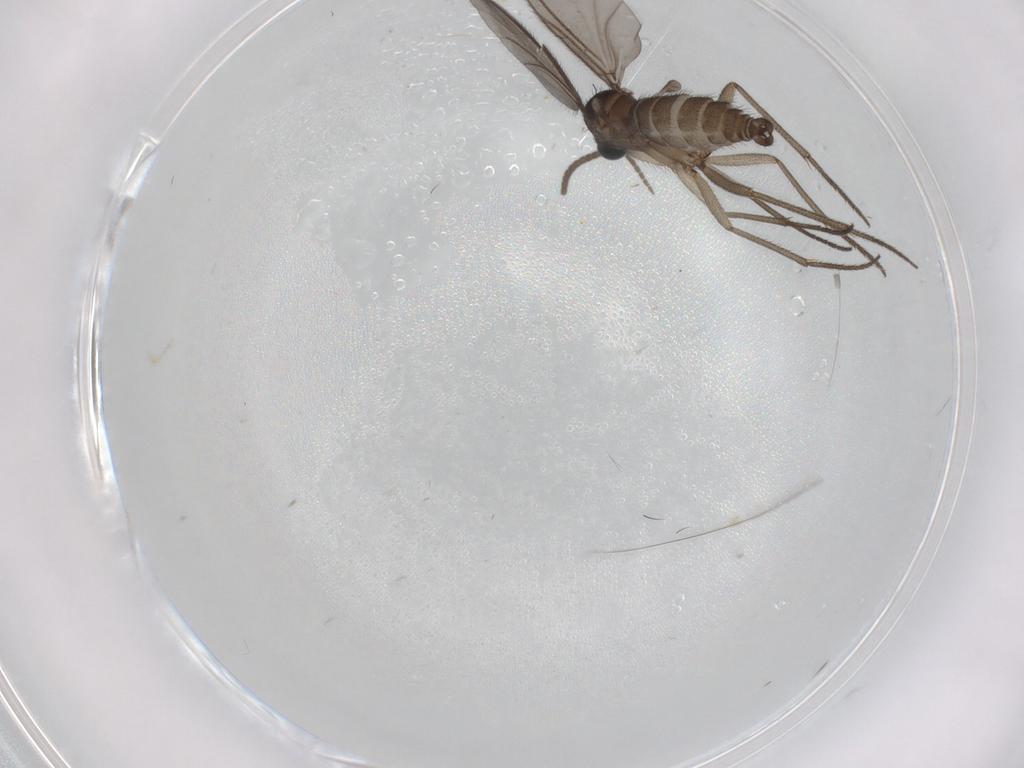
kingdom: Animalia
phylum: Arthropoda
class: Insecta
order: Diptera
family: Sciaridae
